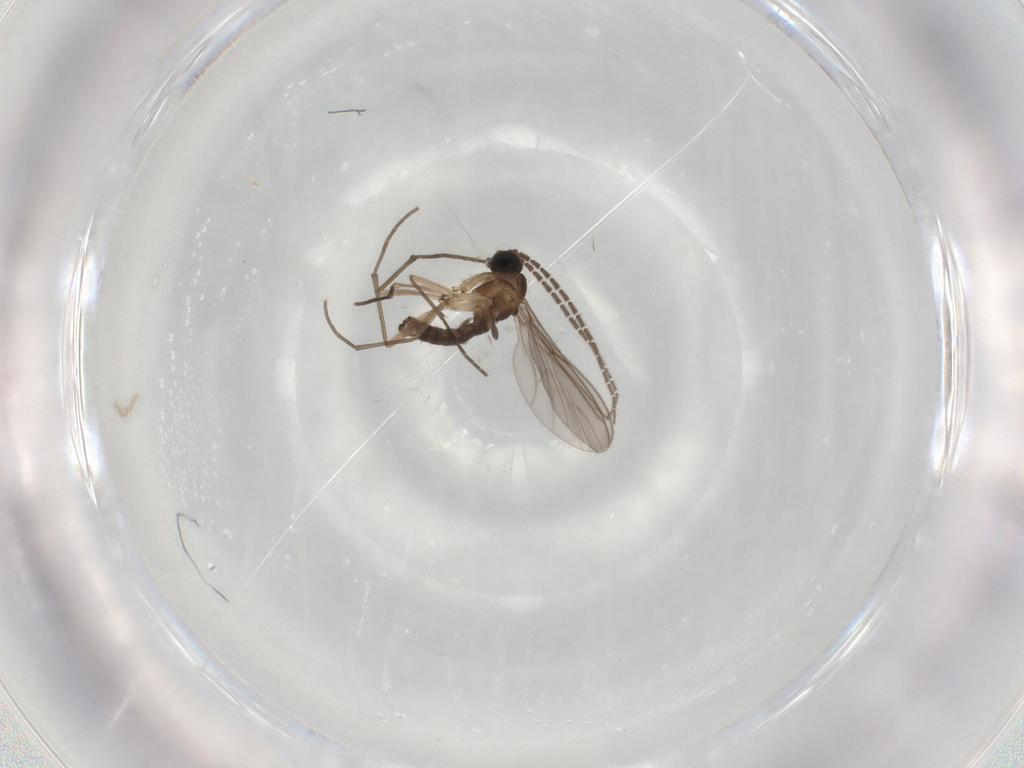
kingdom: Animalia
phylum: Arthropoda
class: Insecta
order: Diptera
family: Sciaridae
